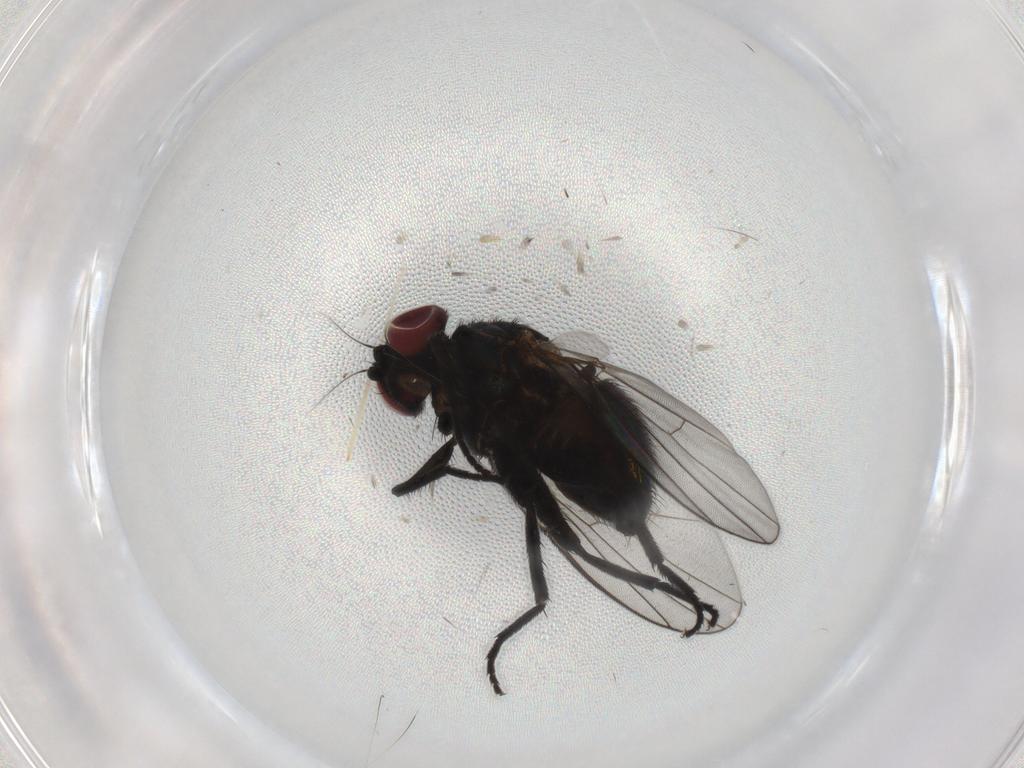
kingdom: Animalia
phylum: Arthropoda
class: Insecta
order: Diptera
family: Agromyzidae
